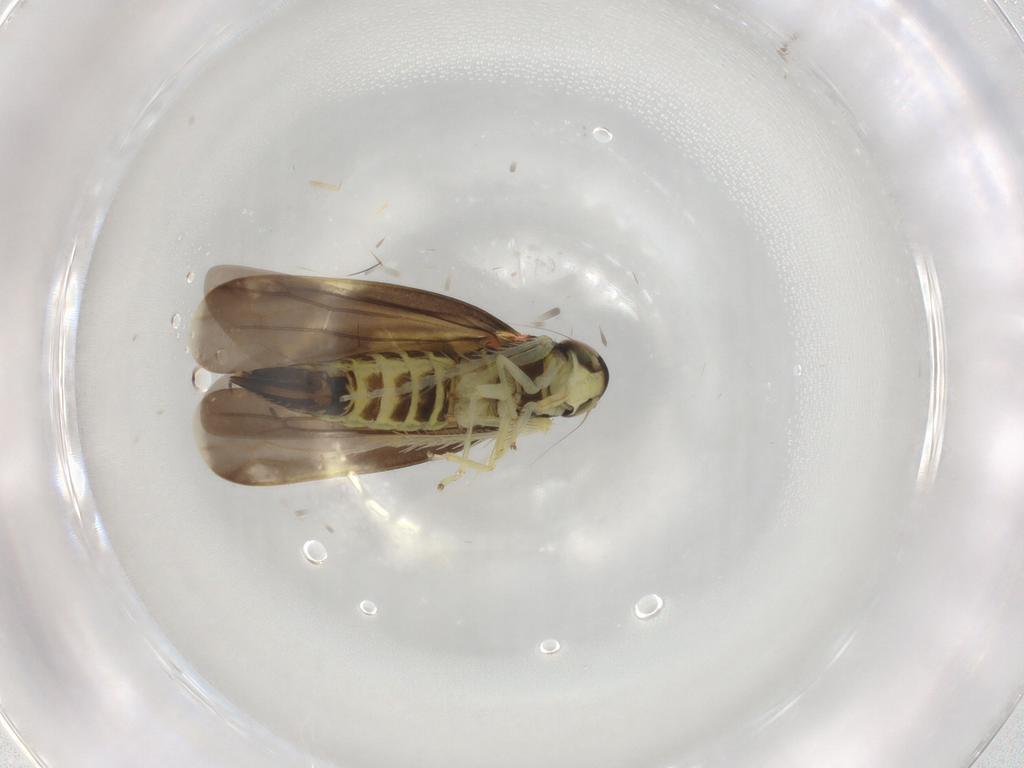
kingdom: Animalia
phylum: Arthropoda
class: Insecta
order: Hemiptera
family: Cicadellidae
